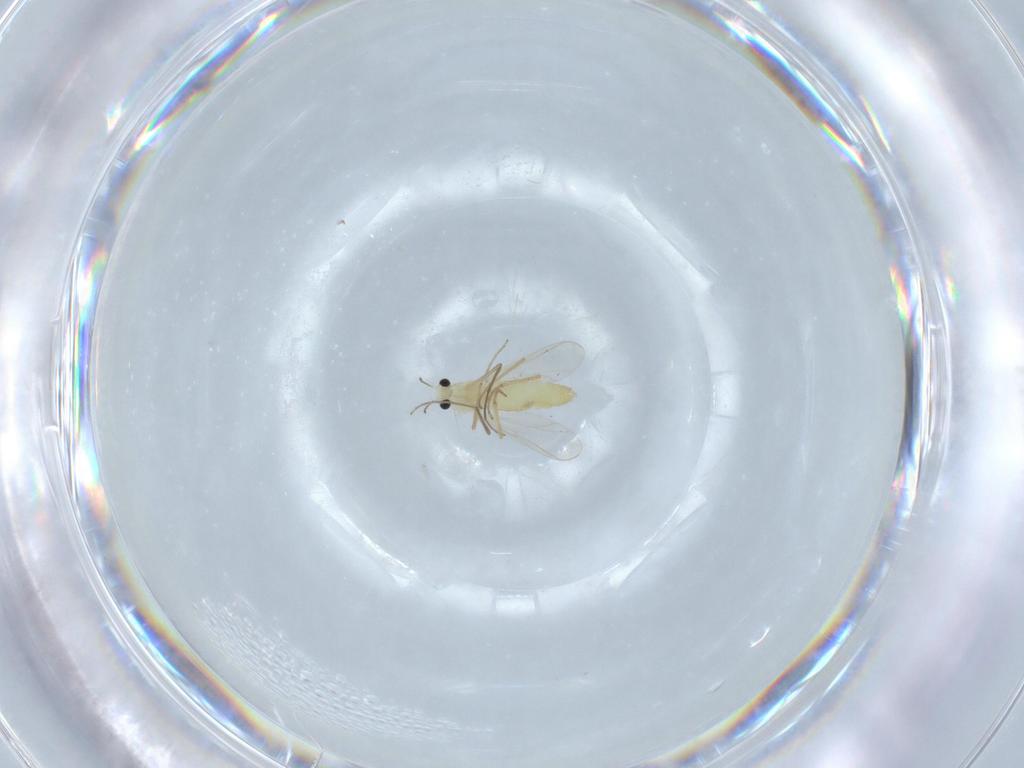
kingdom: Animalia
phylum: Arthropoda
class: Insecta
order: Diptera
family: Chironomidae
